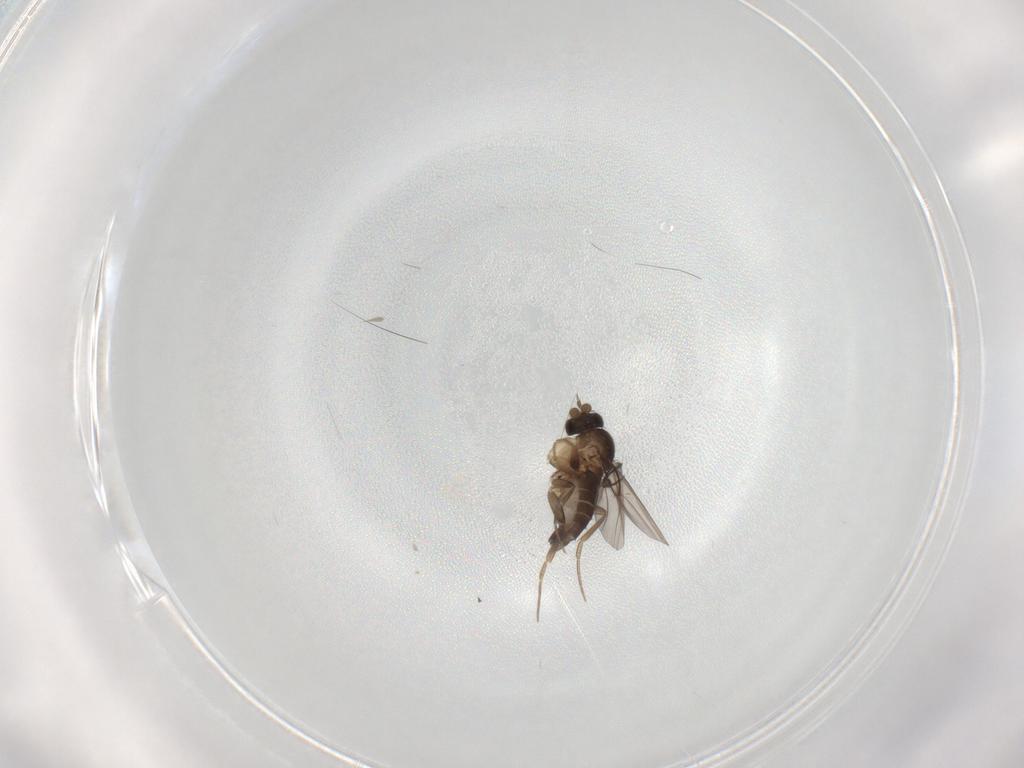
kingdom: Animalia
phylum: Arthropoda
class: Insecta
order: Diptera
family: Phoridae
